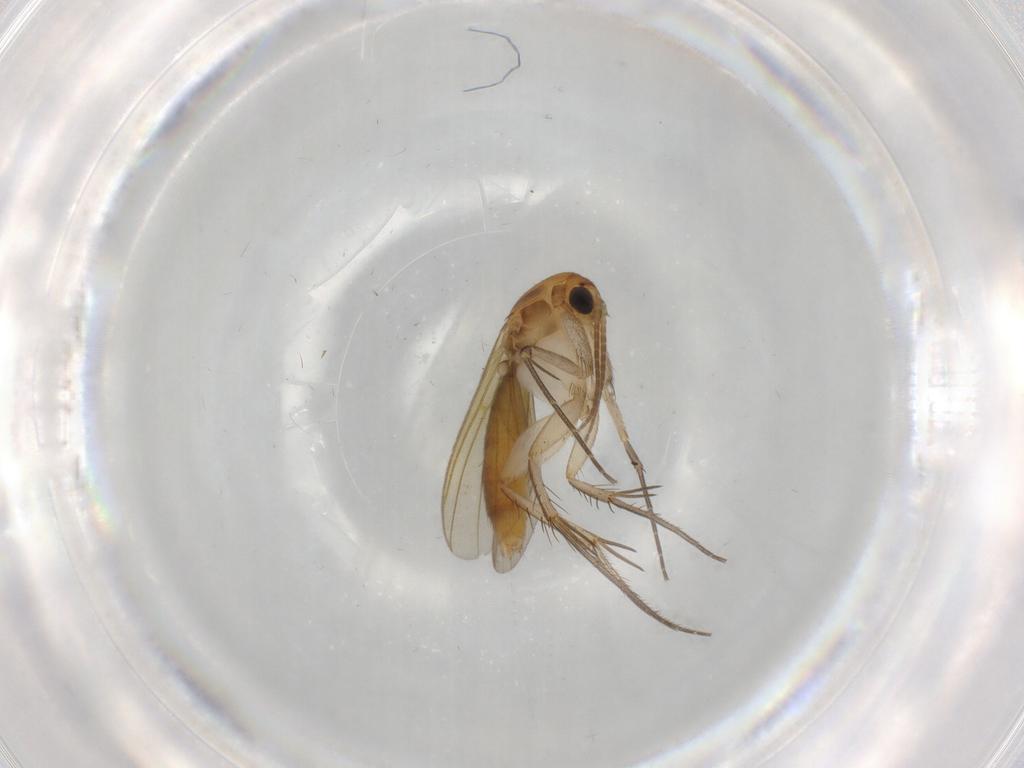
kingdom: Animalia
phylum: Arthropoda
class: Insecta
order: Diptera
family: Mycetophilidae
